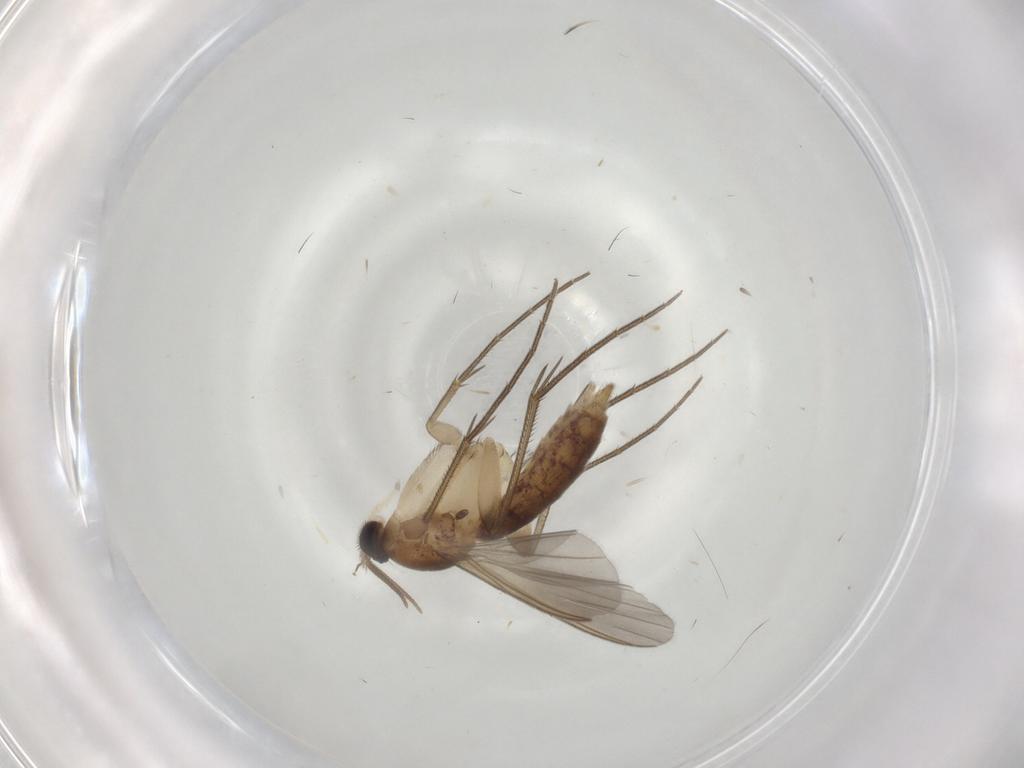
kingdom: Animalia
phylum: Arthropoda
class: Insecta
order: Diptera
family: Mycetophilidae
